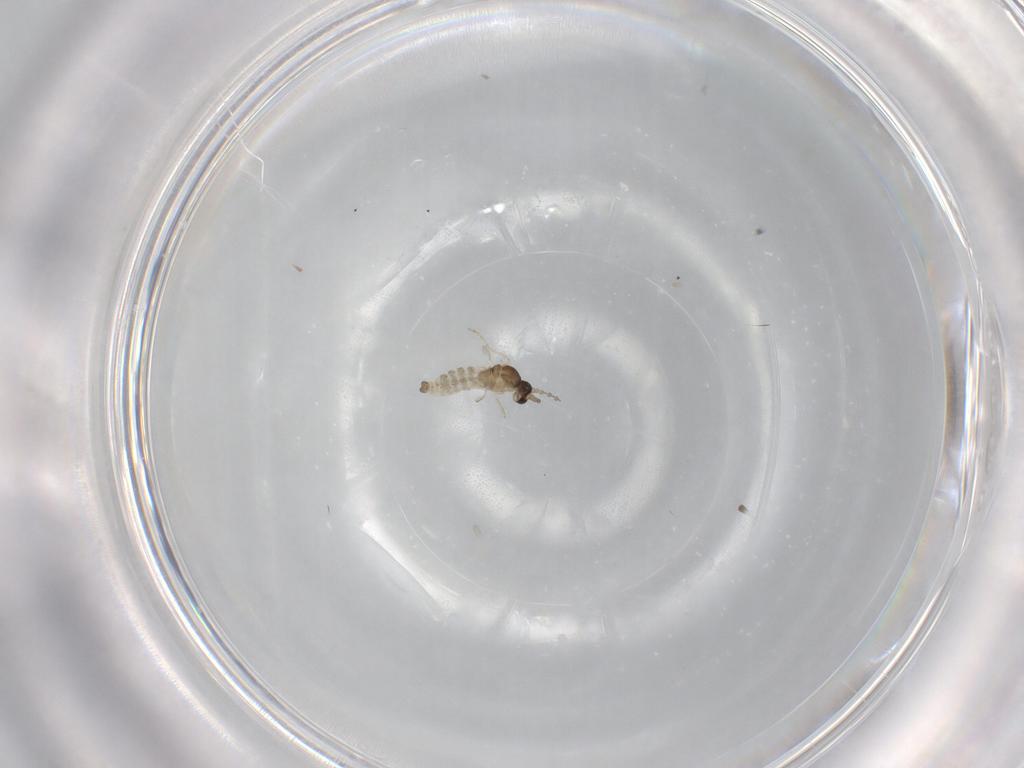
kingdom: Animalia
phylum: Arthropoda
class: Insecta
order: Diptera
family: Cecidomyiidae
